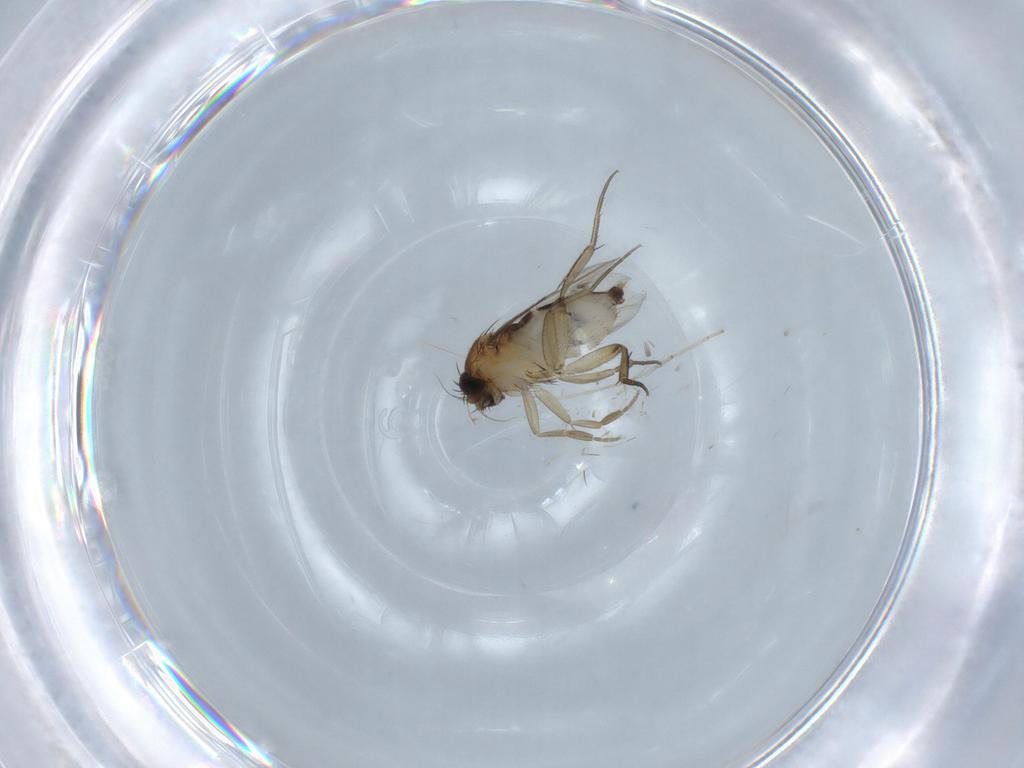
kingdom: Animalia
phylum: Arthropoda
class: Insecta
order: Diptera
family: Phoridae
